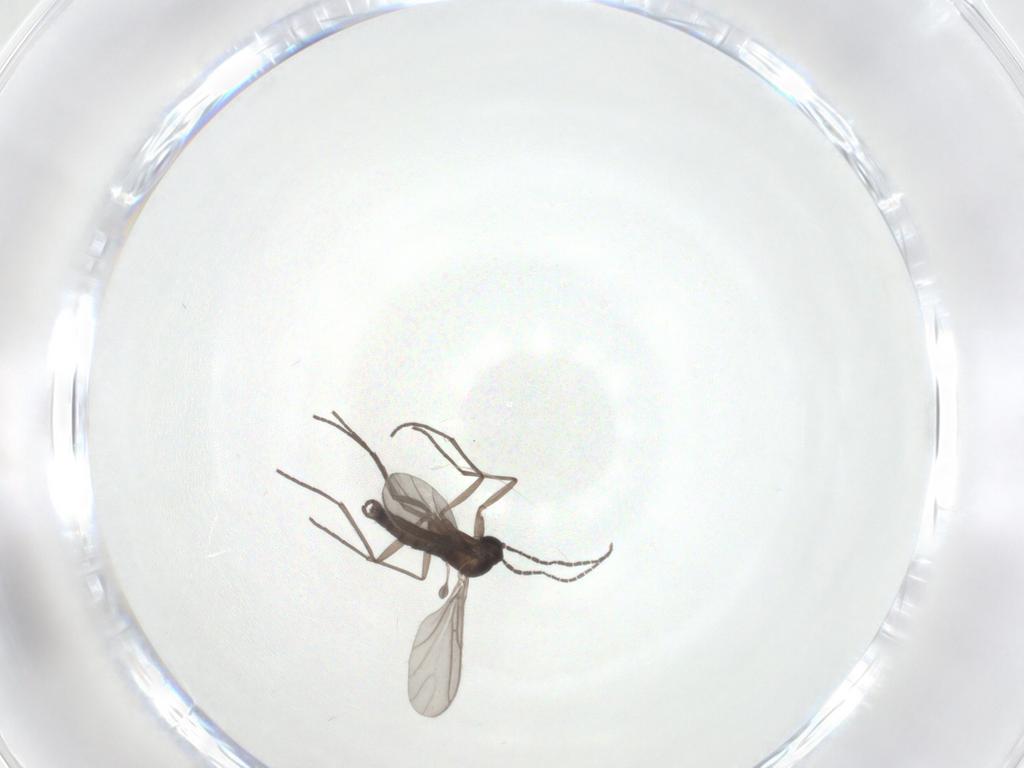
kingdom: Animalia
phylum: Arthropoda
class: Insecta
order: Diptera
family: Sciaridae
